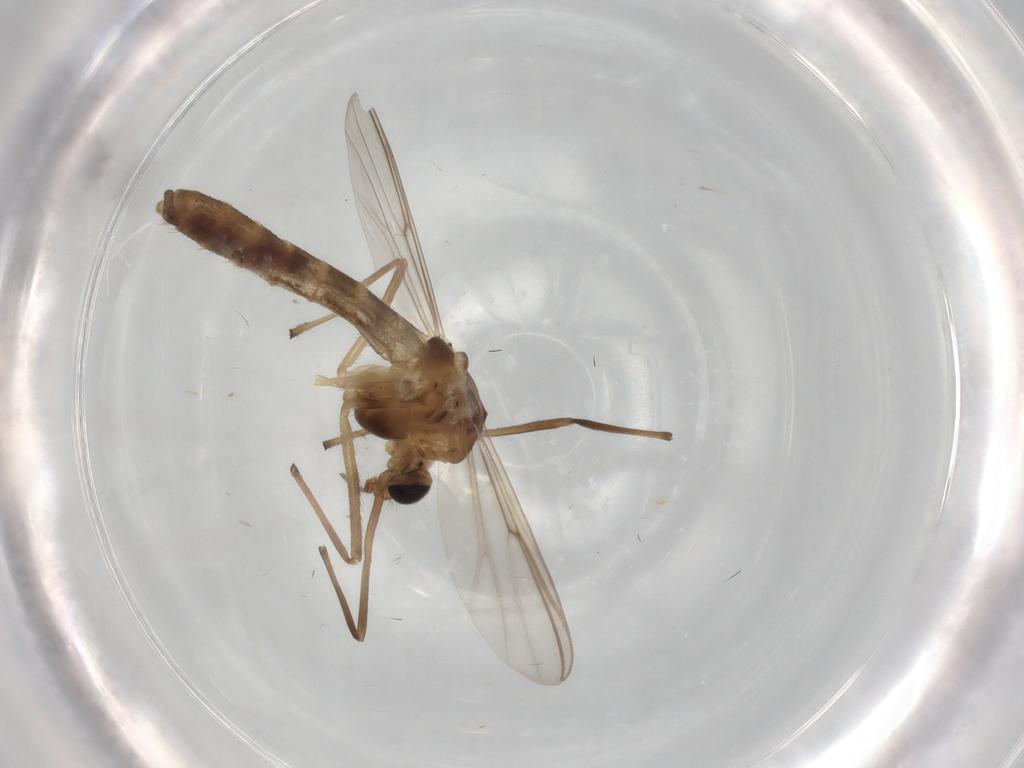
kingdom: Animalia
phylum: Arthropoda
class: Insecta
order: Diptera
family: Chironomidae
